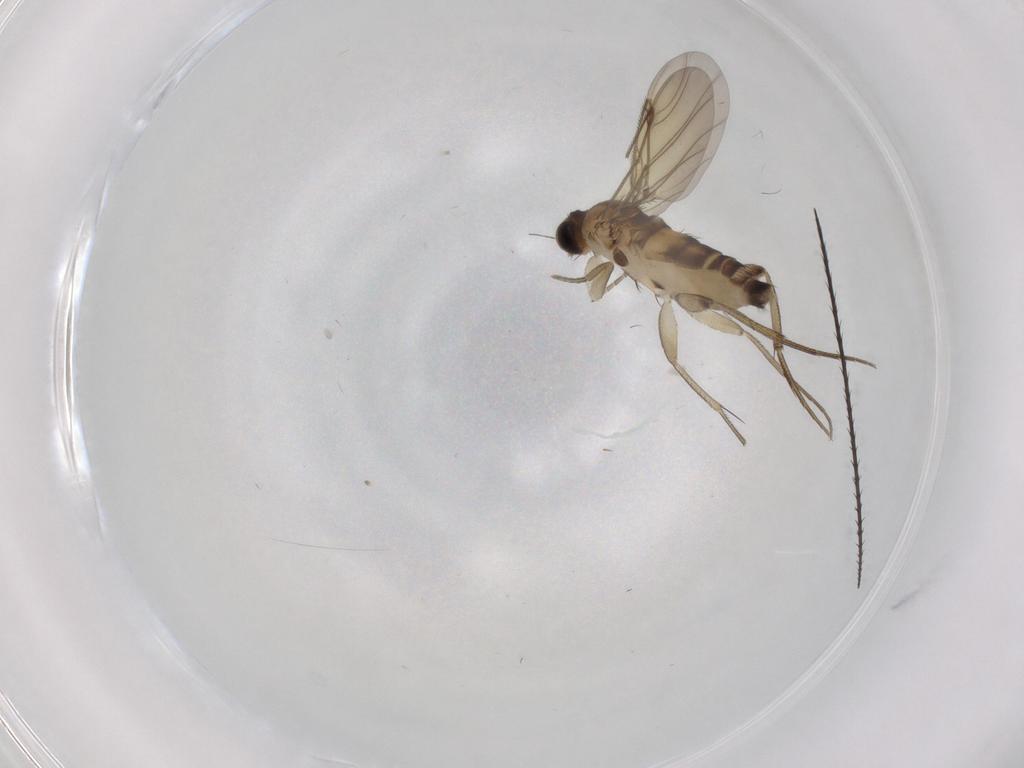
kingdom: Animalia
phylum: Arthropoda
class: Insecta
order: Diptera
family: Phoridae
